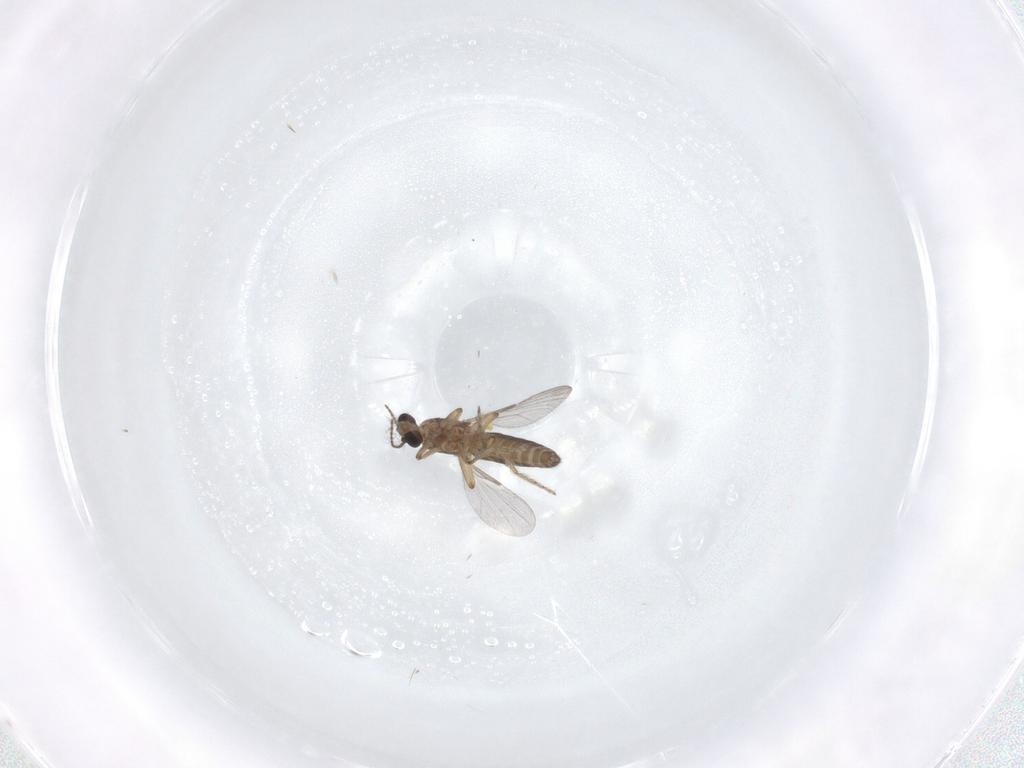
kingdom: Animalia
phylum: Arthropoda
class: Insecta
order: Diptera
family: Ceratopogonidae
